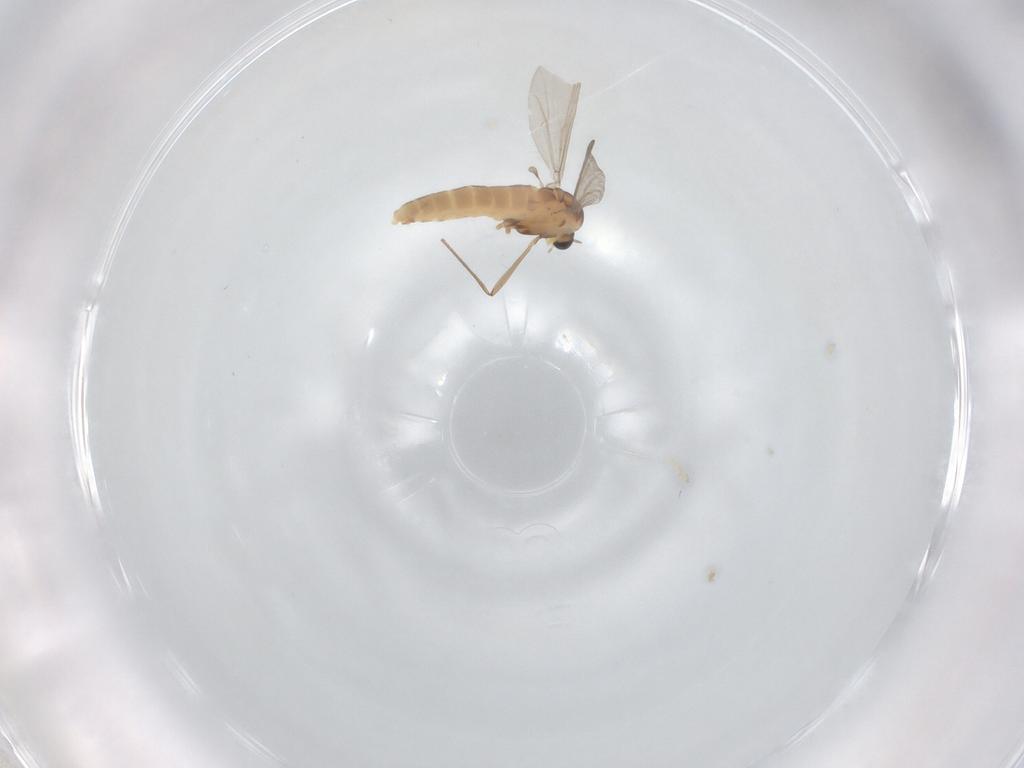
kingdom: Animalia
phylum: Arthropoda
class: Insecta
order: Diptera
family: Chironomidae
